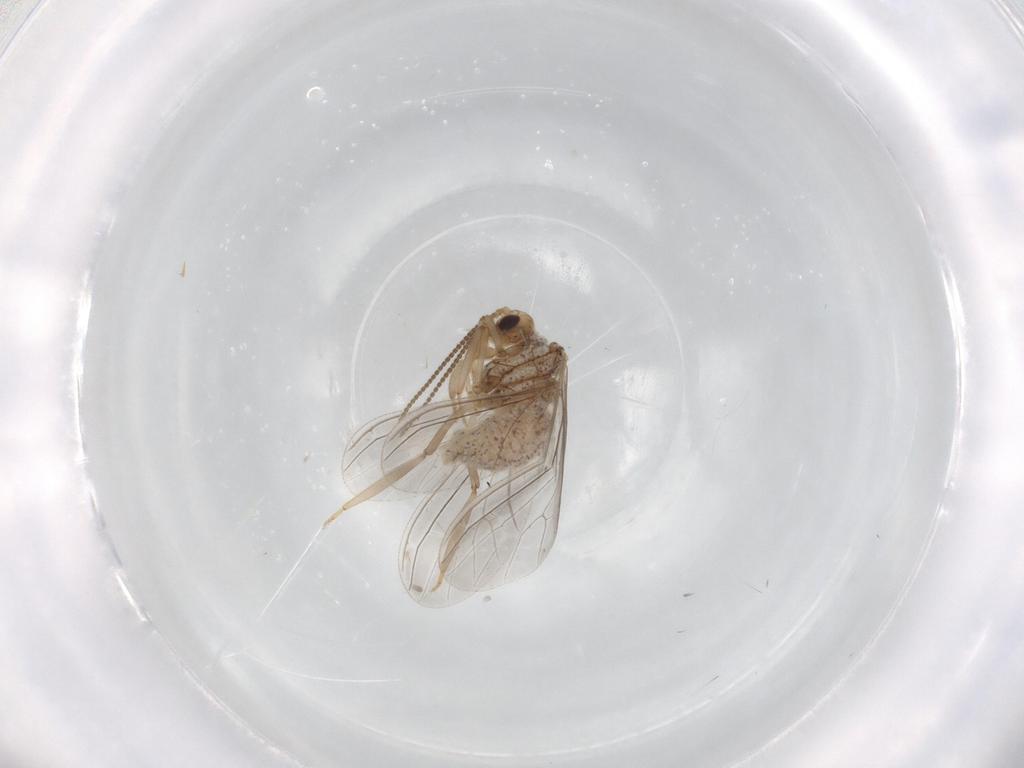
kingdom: Animalia
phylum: Arthropoda
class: Insecta
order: Neuroptera
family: Coniopterygidae
